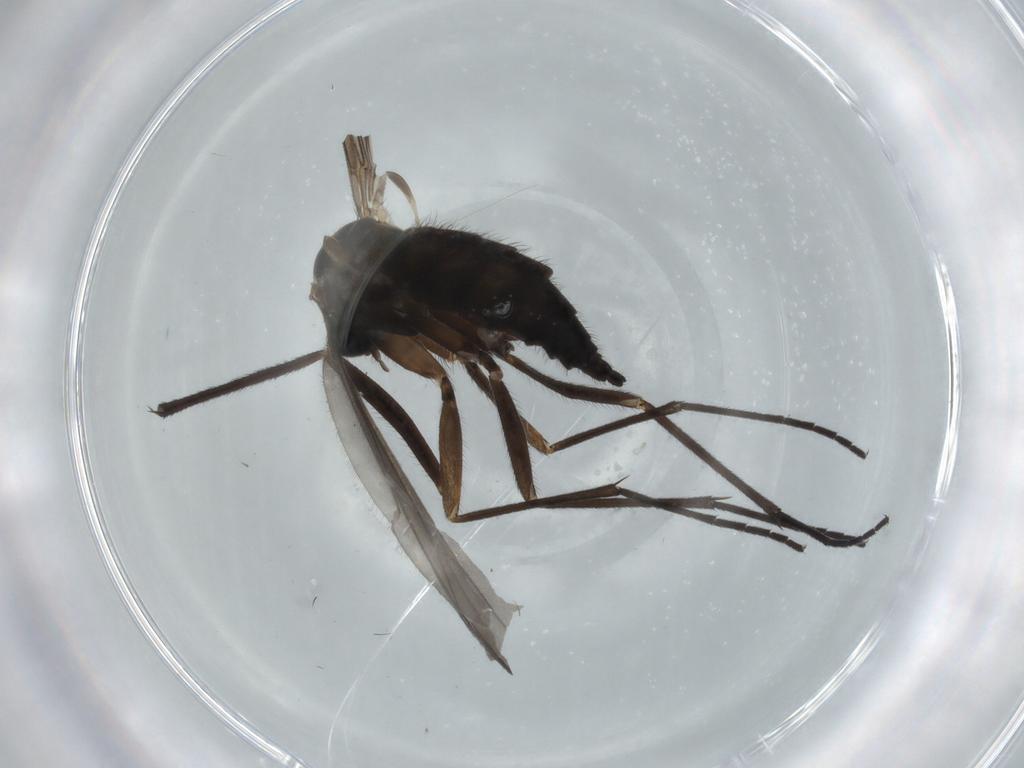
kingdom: Animalia
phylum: Arthropoda
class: Insecta
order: Diptera
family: Sciaridae
